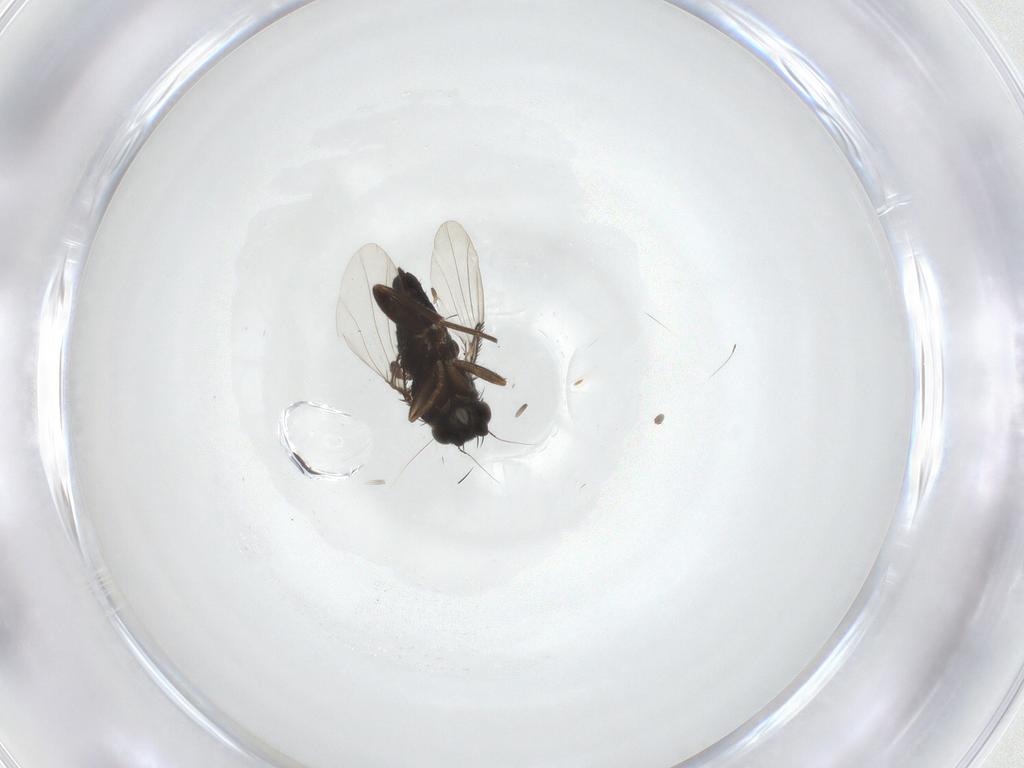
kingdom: Animalia
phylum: Arthropoda
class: Insecta
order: Diptera
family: Phoridae
